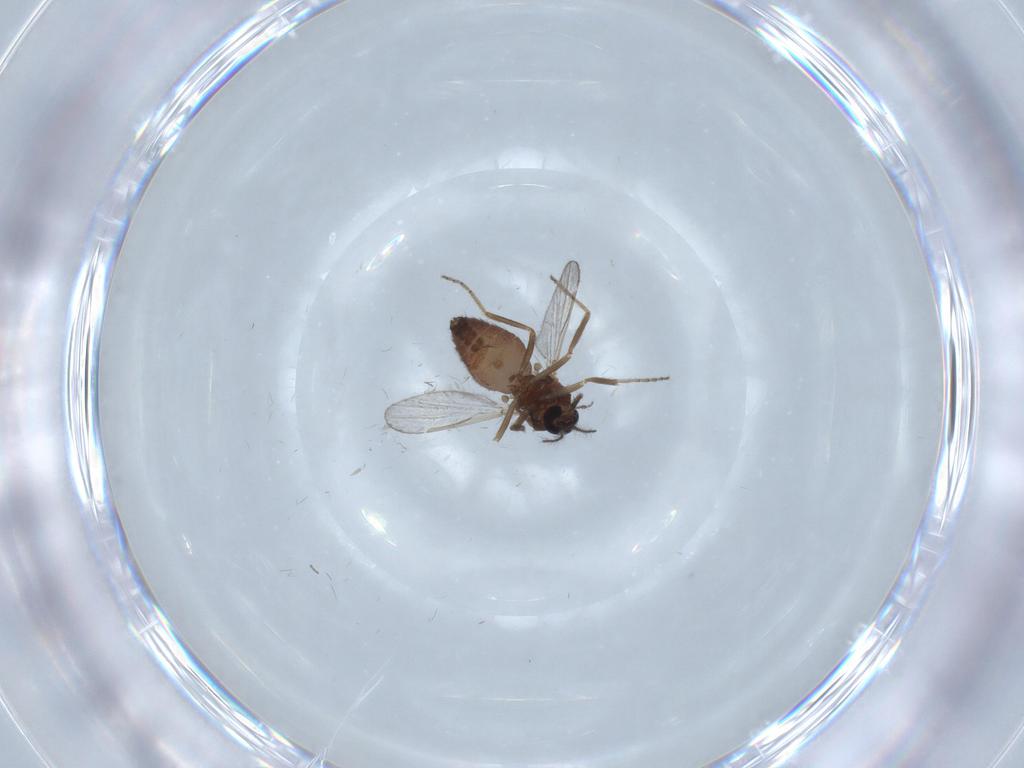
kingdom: Animalia
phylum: Arthropoda
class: Insecta
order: Diptera
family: Ceratopogonidae
